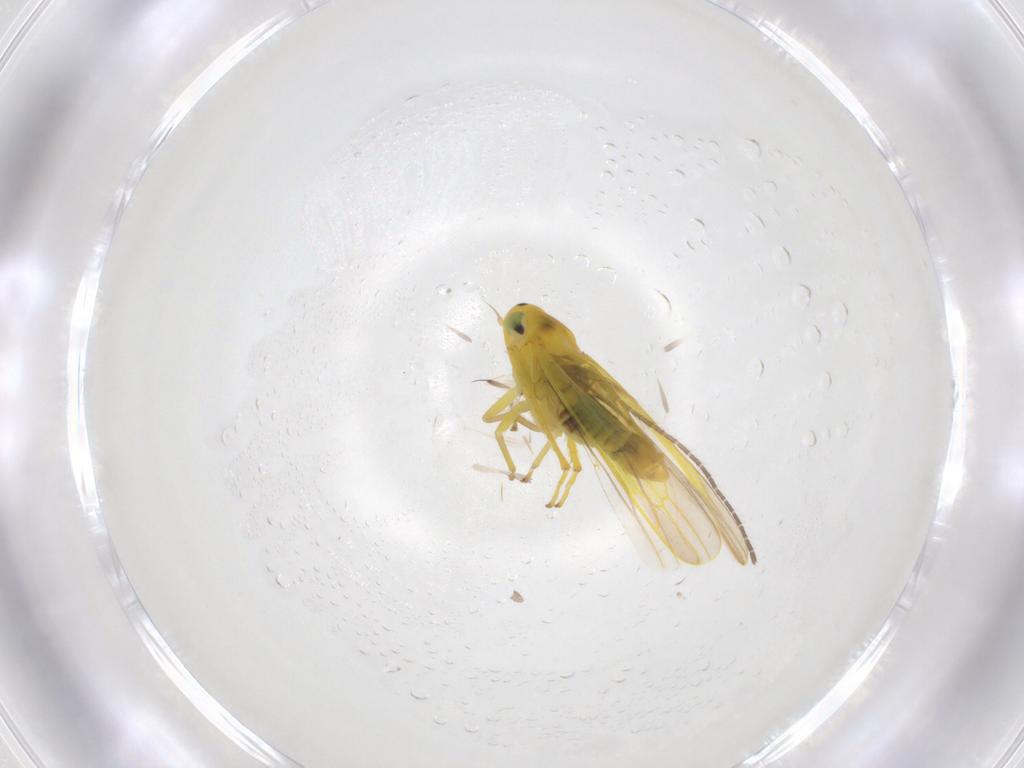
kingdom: Animalia
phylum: Arthropoda
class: Insecta
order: Hemiptera
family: Cicadellidae
